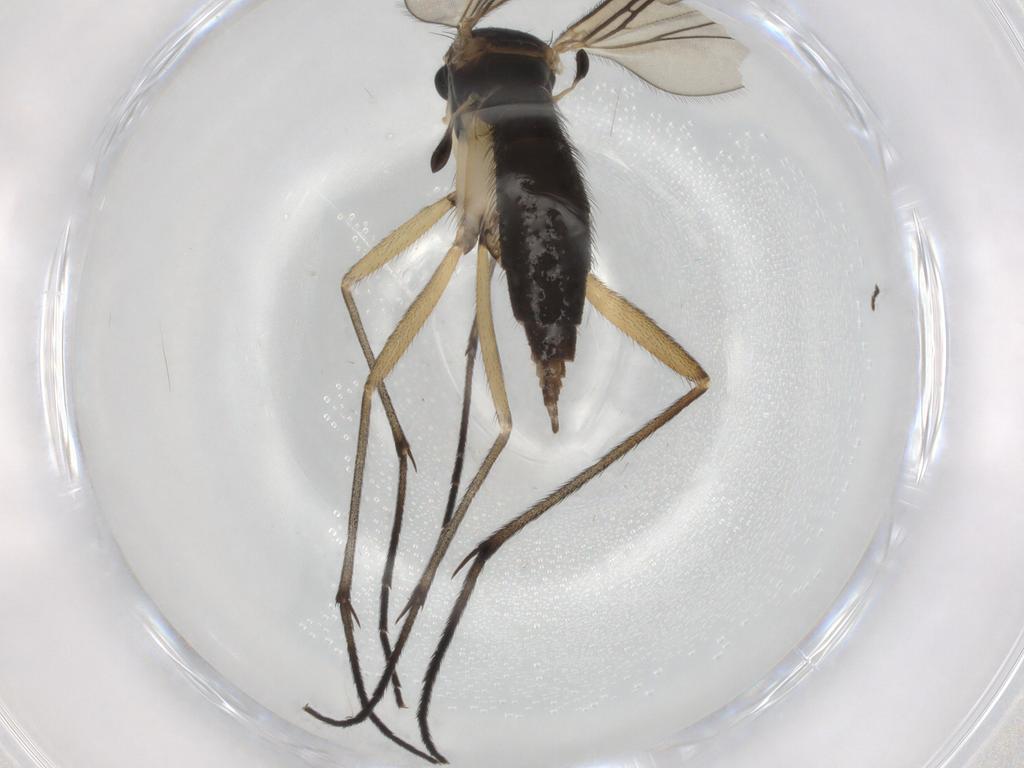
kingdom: Animalia
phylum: Arthropoda
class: Insecta
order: Diptera
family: Sciaridae
